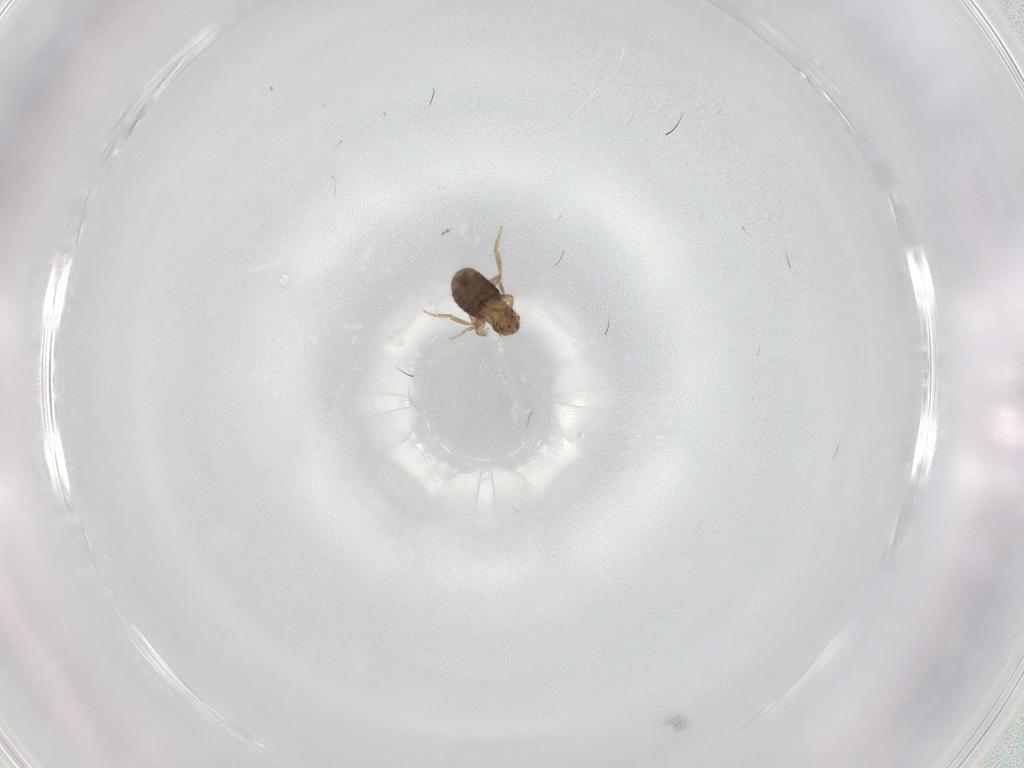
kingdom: Animalia
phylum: Arthropoda
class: Insecta
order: Diptera
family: Cecidomyiidae
